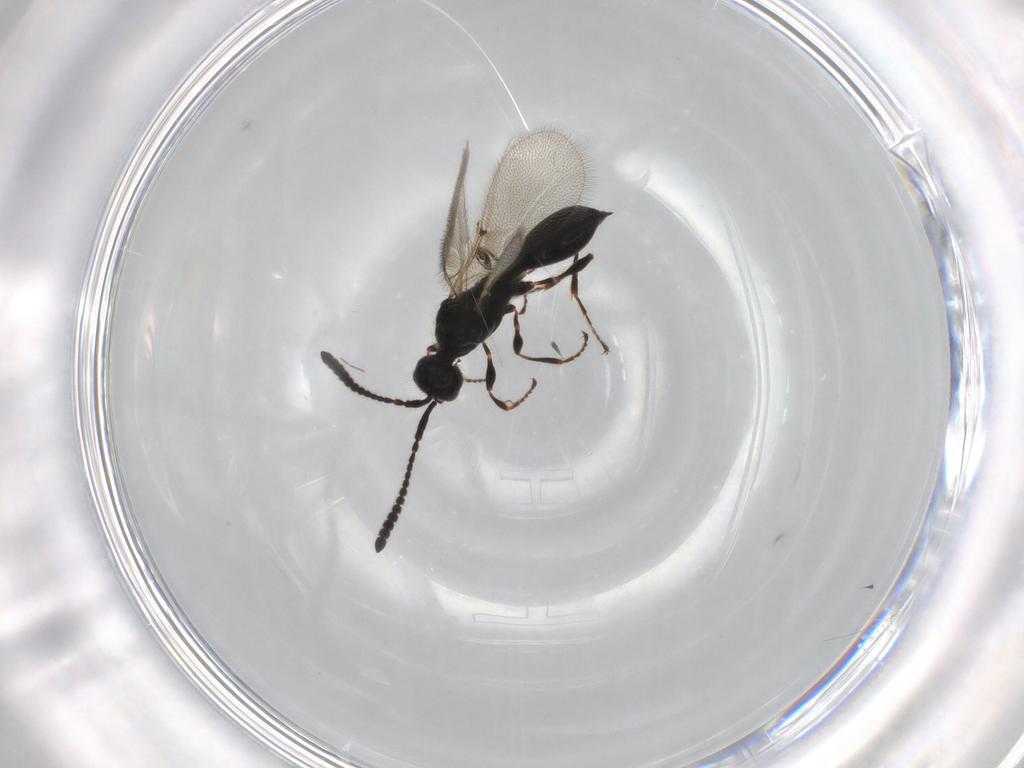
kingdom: Animalia
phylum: Arthropoda
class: Insecta
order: Hymenoptera
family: Diapriidae
